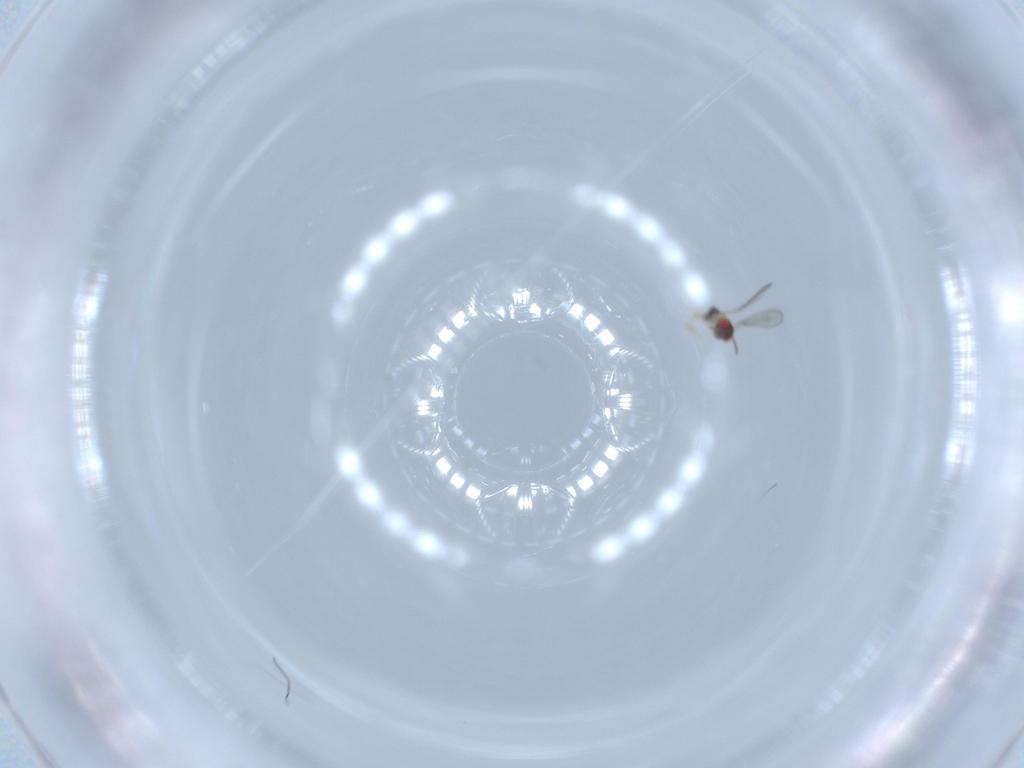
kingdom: Animalia
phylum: Arthropoda
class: Insecta
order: Hymenoptera
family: Aphelinidae
